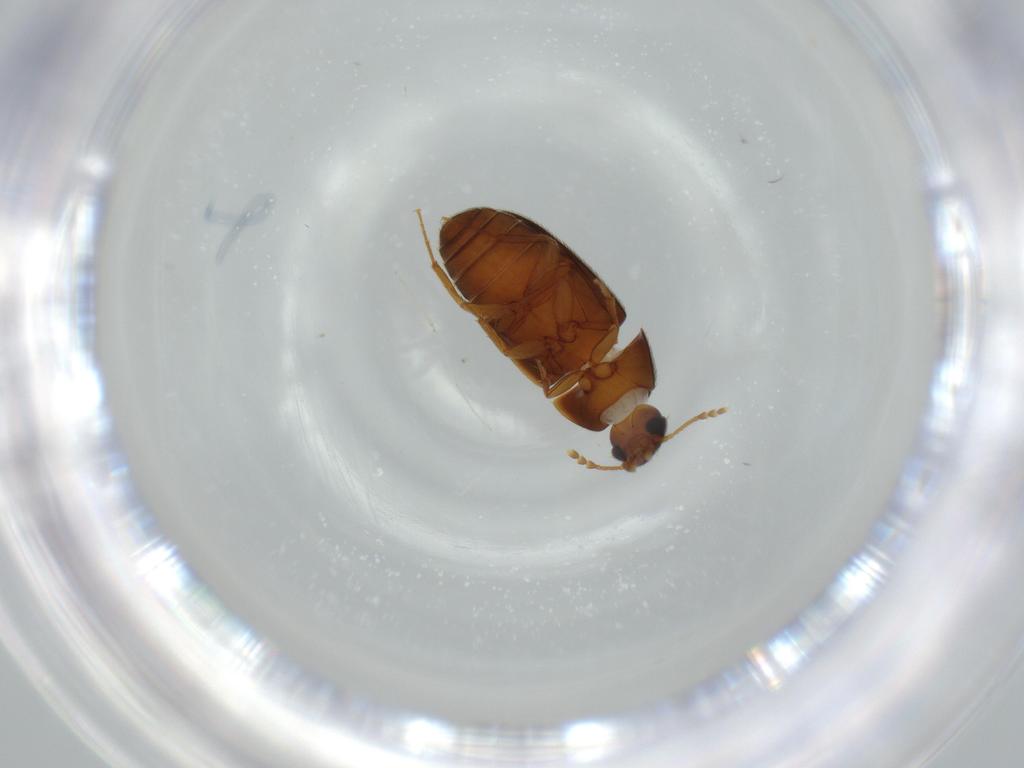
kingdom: Animalia
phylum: Arthropoda
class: Insecta
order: Coleoptera
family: Mycetophagidae
